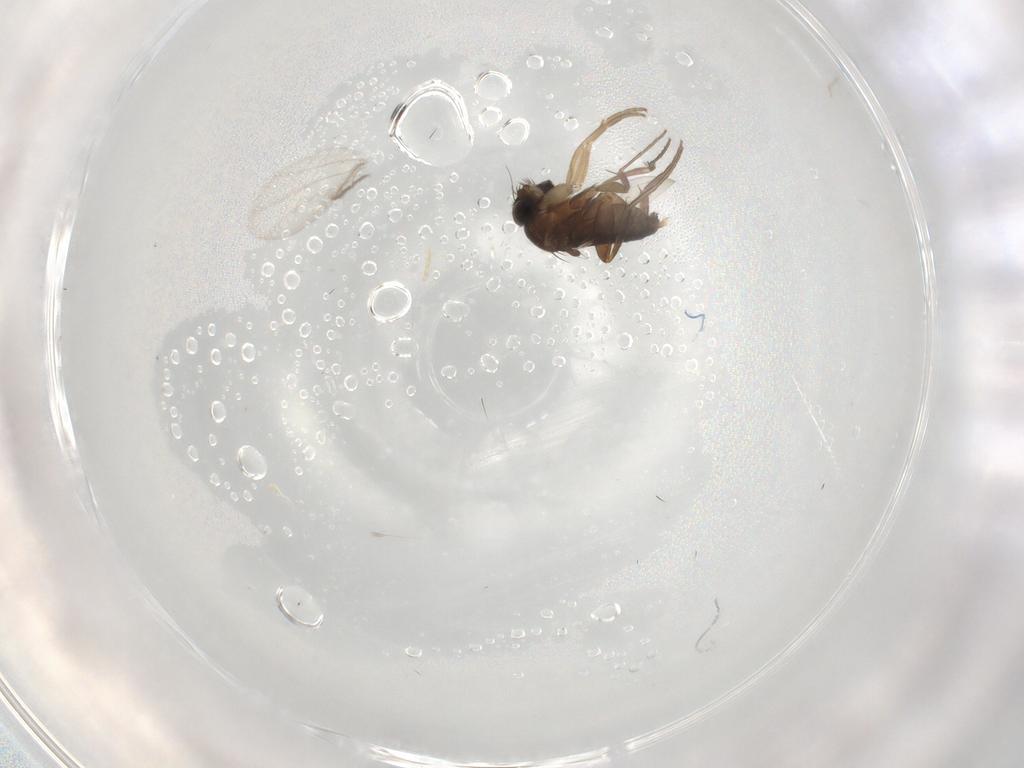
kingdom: Animalia
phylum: Arthropoda
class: Insecta
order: Diptera
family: Phoridae
